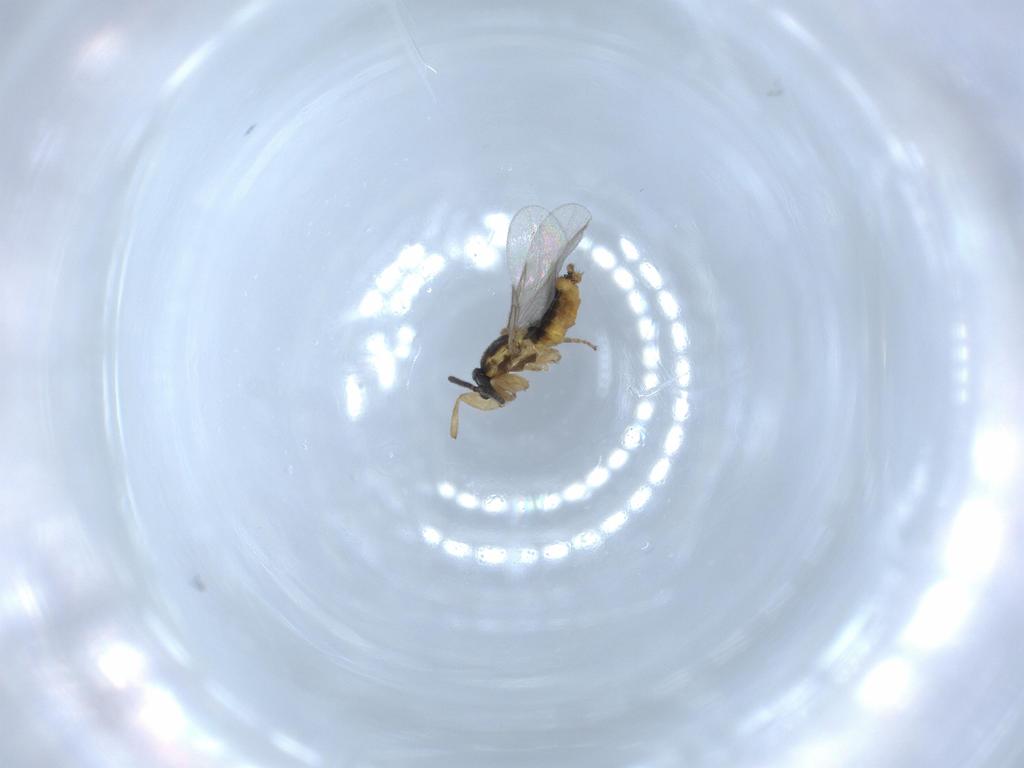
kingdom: Animalia
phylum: Arthropoda
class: Insecta
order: Diptera
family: Scatopsidae
